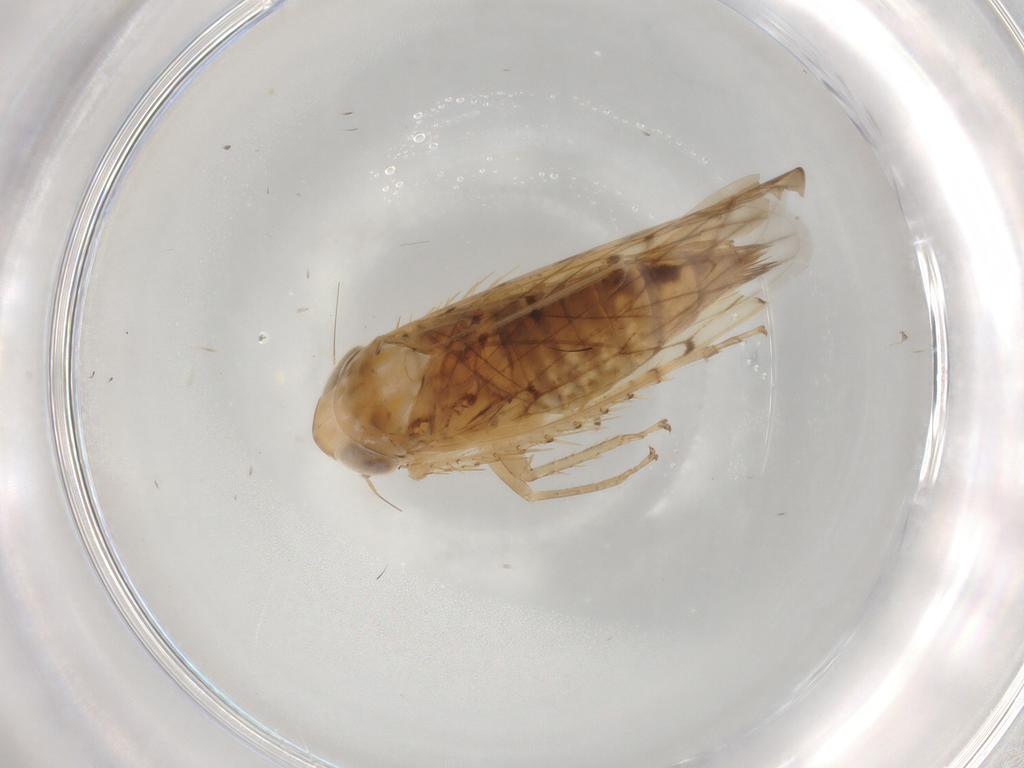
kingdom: Animalia
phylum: Arthropoda
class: Insecta
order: Hemiptera
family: Cicadellidae
